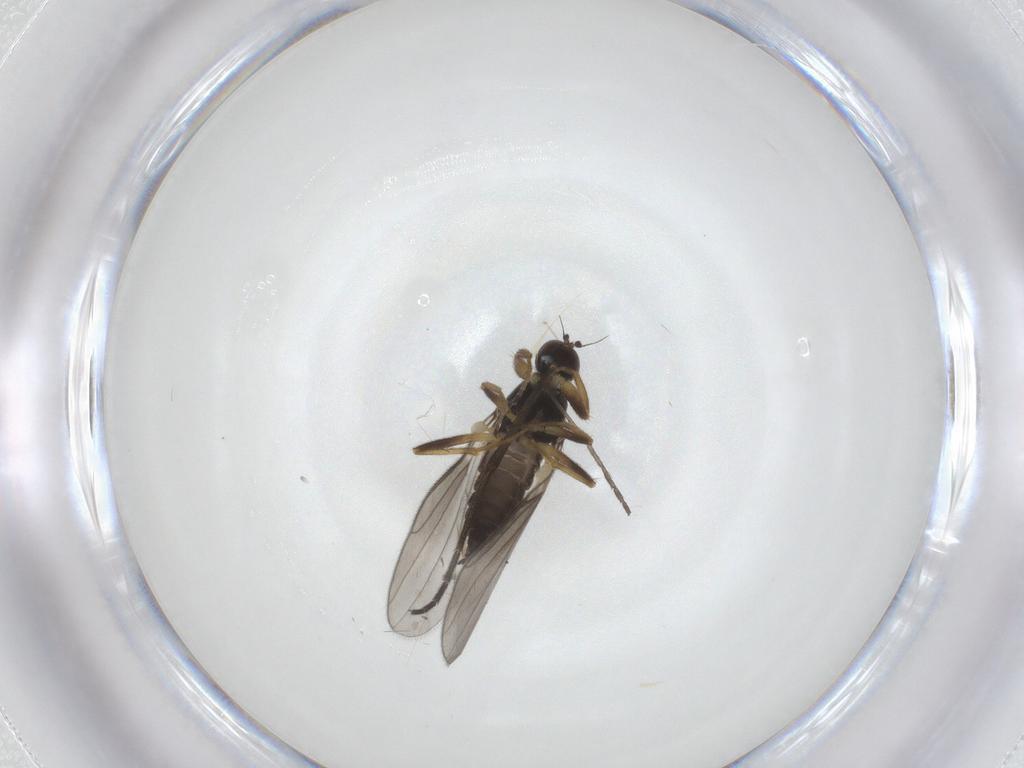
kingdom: Animalia
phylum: Arthropoda
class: Insecta
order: Diptera
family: Hybotidae
